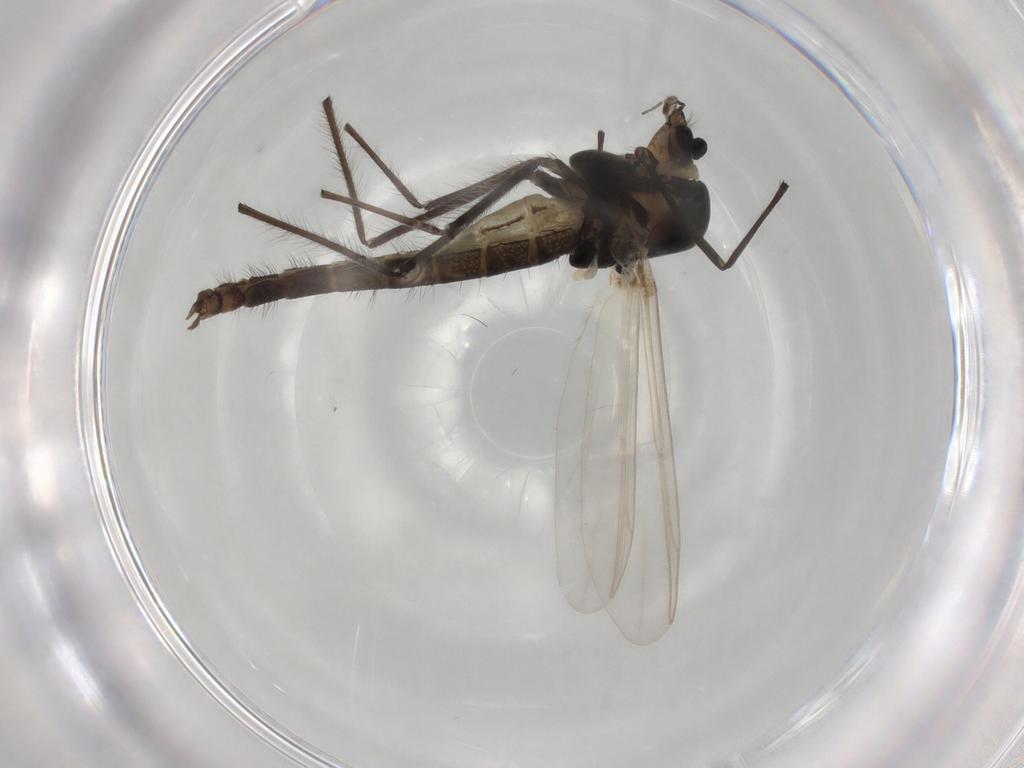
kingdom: Animalia
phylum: Arthropoda
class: Insecta
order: Diptera
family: Chironomidae
